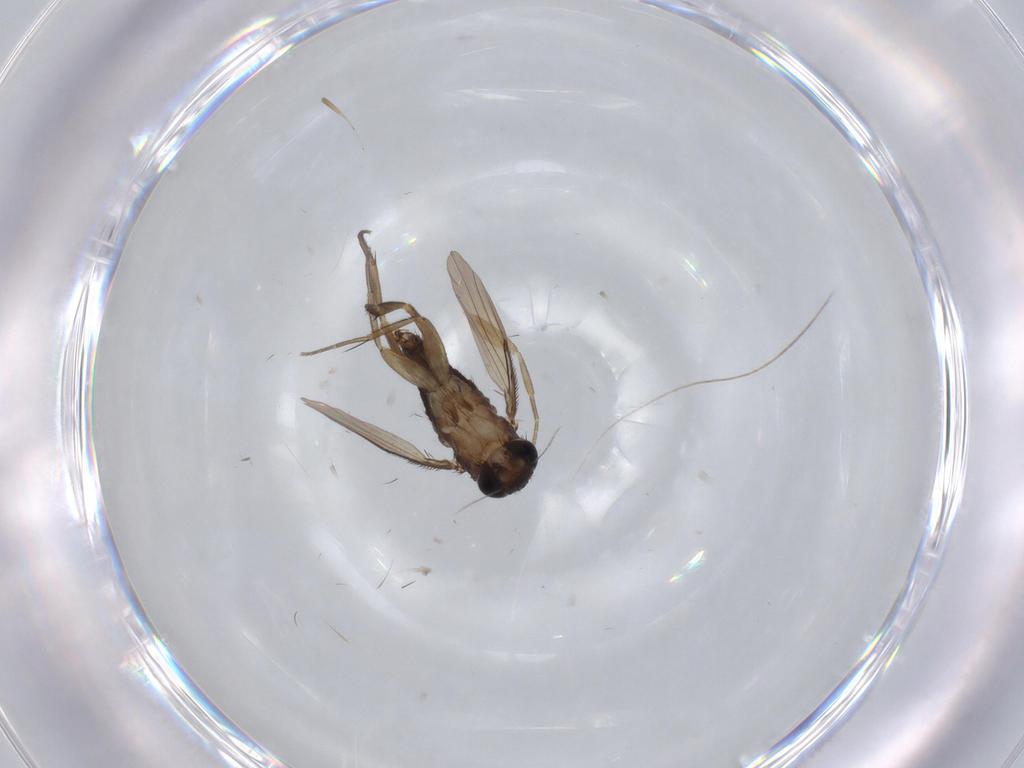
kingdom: Animalia
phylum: Arthropoda
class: Insecta
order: Diptera
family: Phoridae
